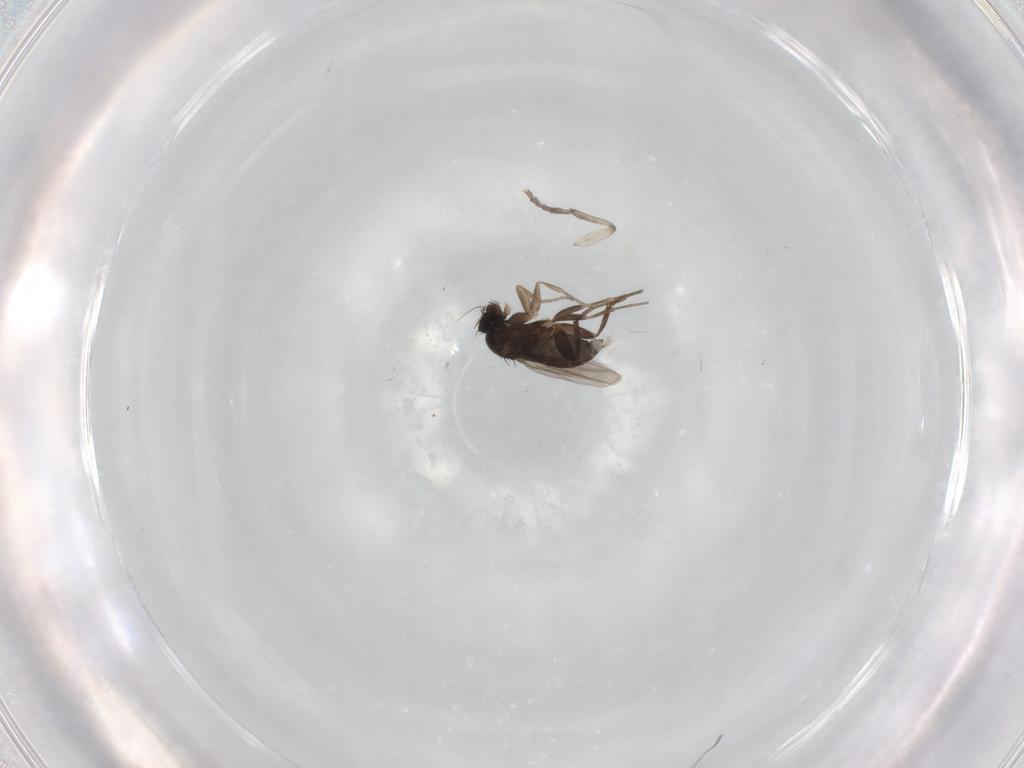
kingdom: Animalia
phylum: Arthropoda
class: Insecta
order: Diptera
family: Phoridae
